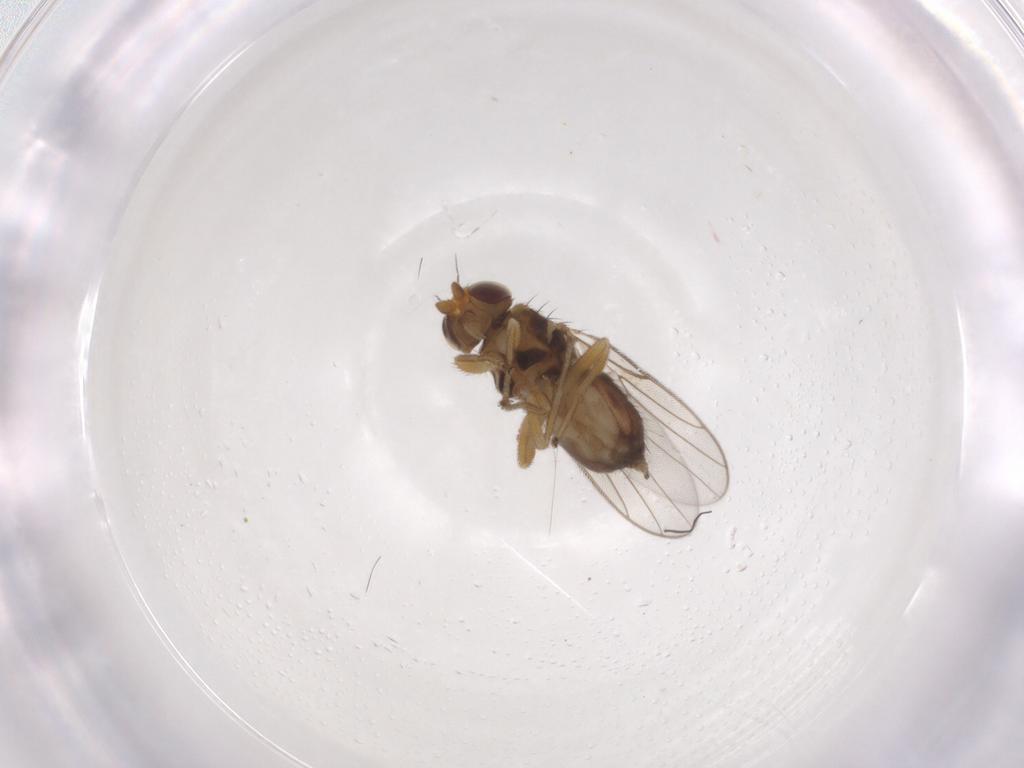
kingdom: Animalia
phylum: Arthropoda
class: Insecta
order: Diptera
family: Chloropidae
